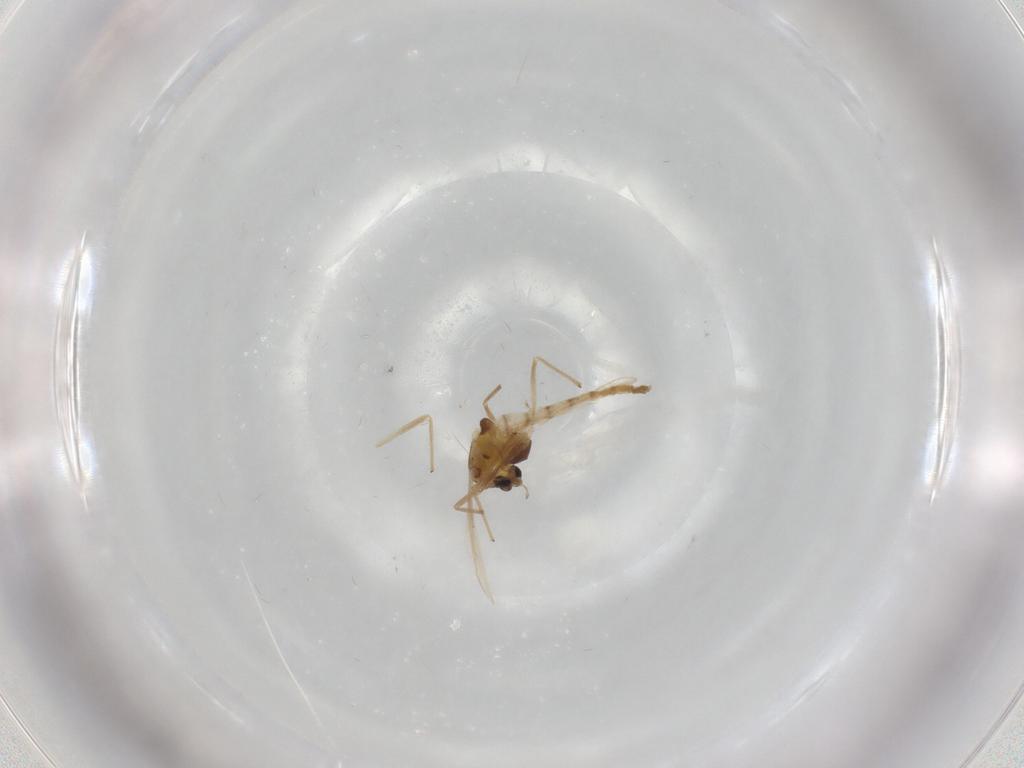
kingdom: Animalia
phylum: Arthropoda
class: Insecta
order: Diptera
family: Chironomidae
